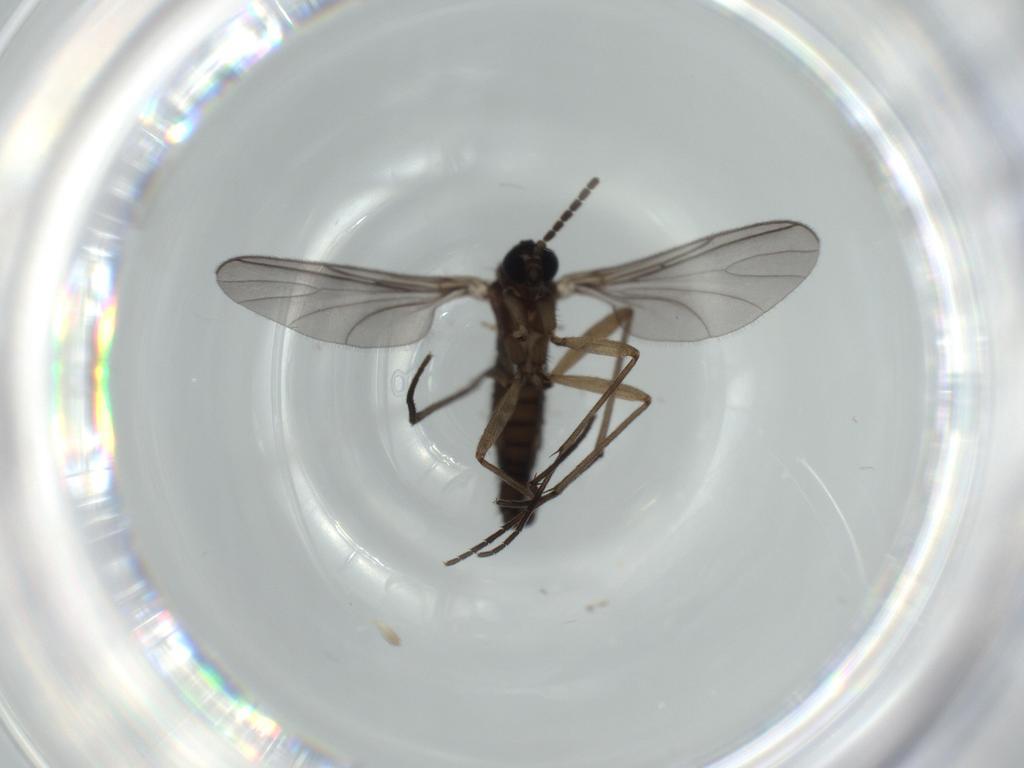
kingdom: Animalia
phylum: Arthropoda
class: Insecta
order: Diptera
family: Sciaridae
